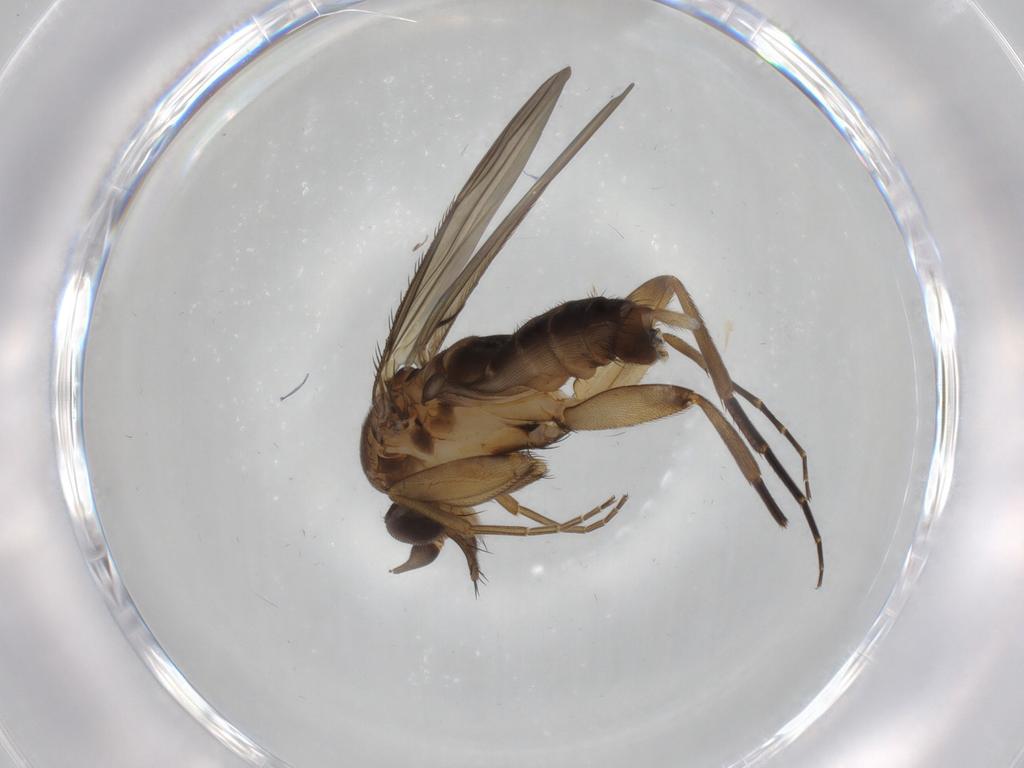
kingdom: Animalia
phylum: Arthropoda
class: Insecta
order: Diptera
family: Phoridae
